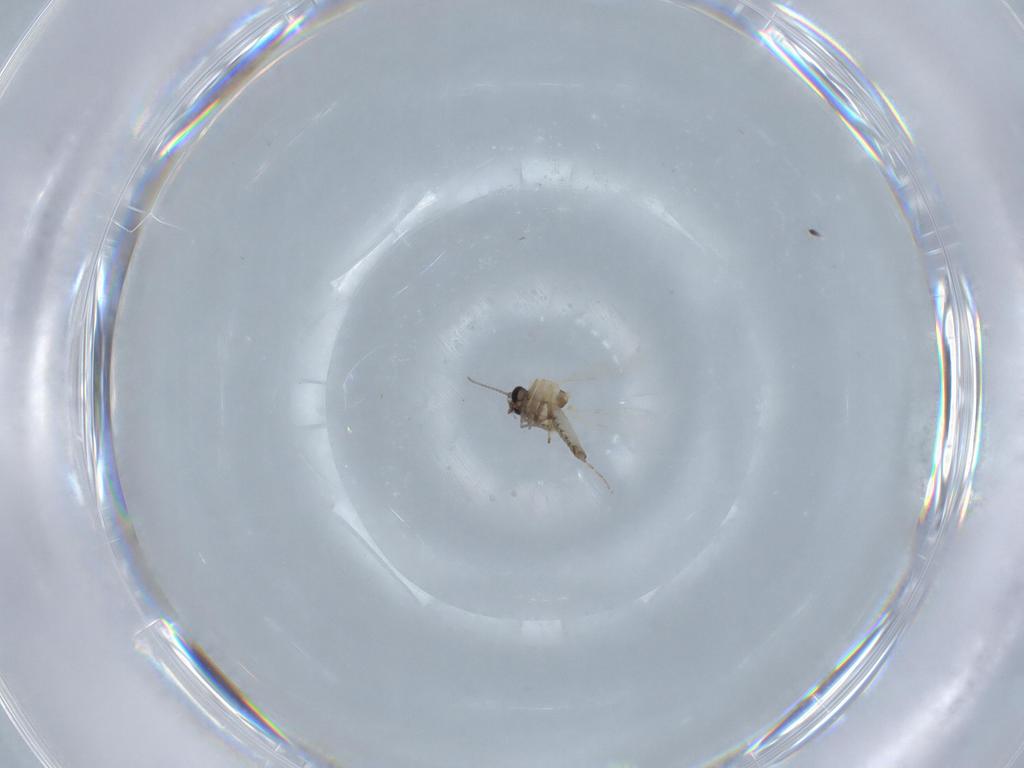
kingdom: Animalia
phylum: Arthropoda
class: Insecta
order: Diptera
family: Ceratopogonidae
